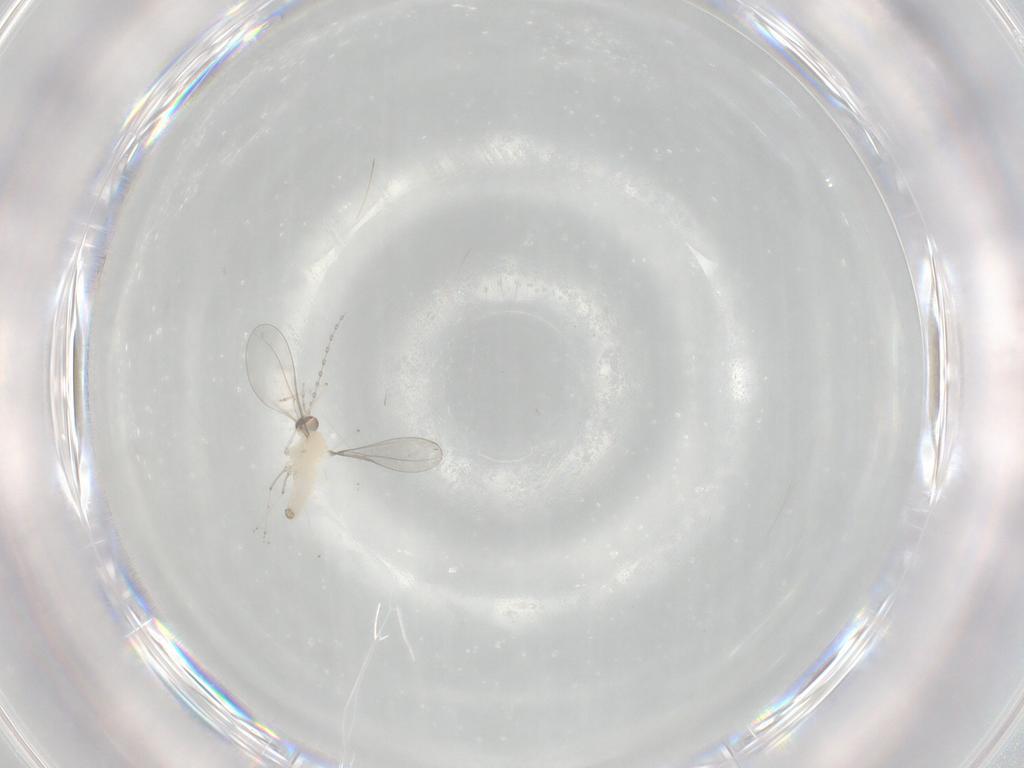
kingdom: Animalia
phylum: Arthropoda
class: Insecta
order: Diptera
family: Cecidomyiidae
